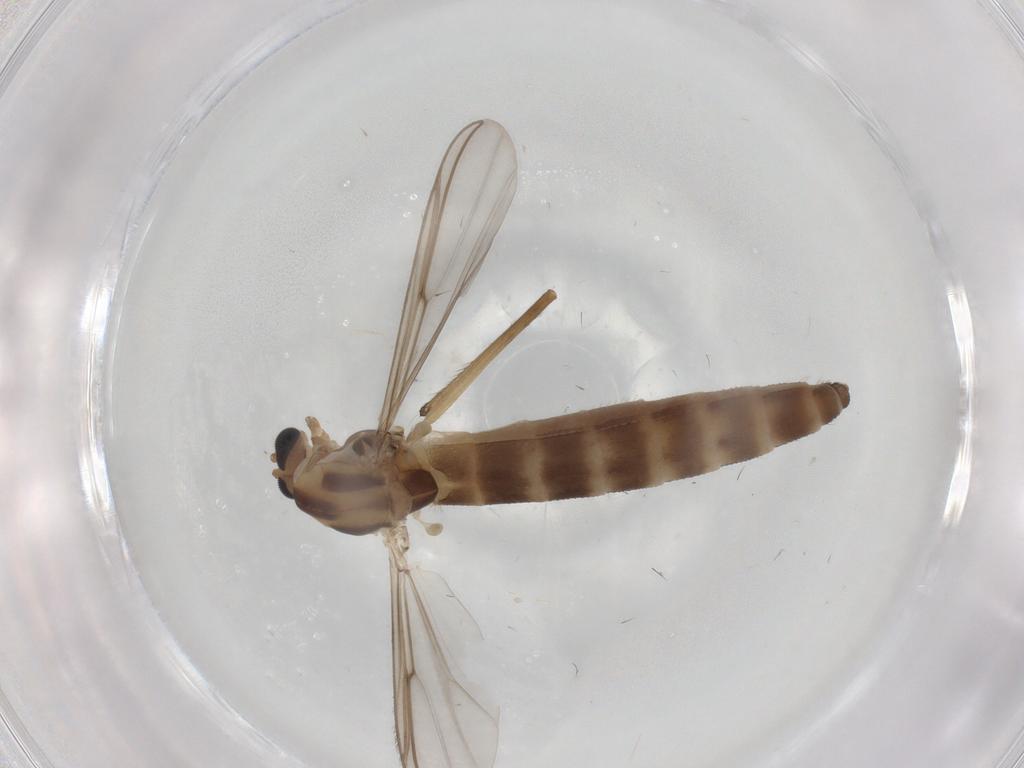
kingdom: Animalia
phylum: Arthropoda
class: Insecta
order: Diptera
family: Chironomidae
